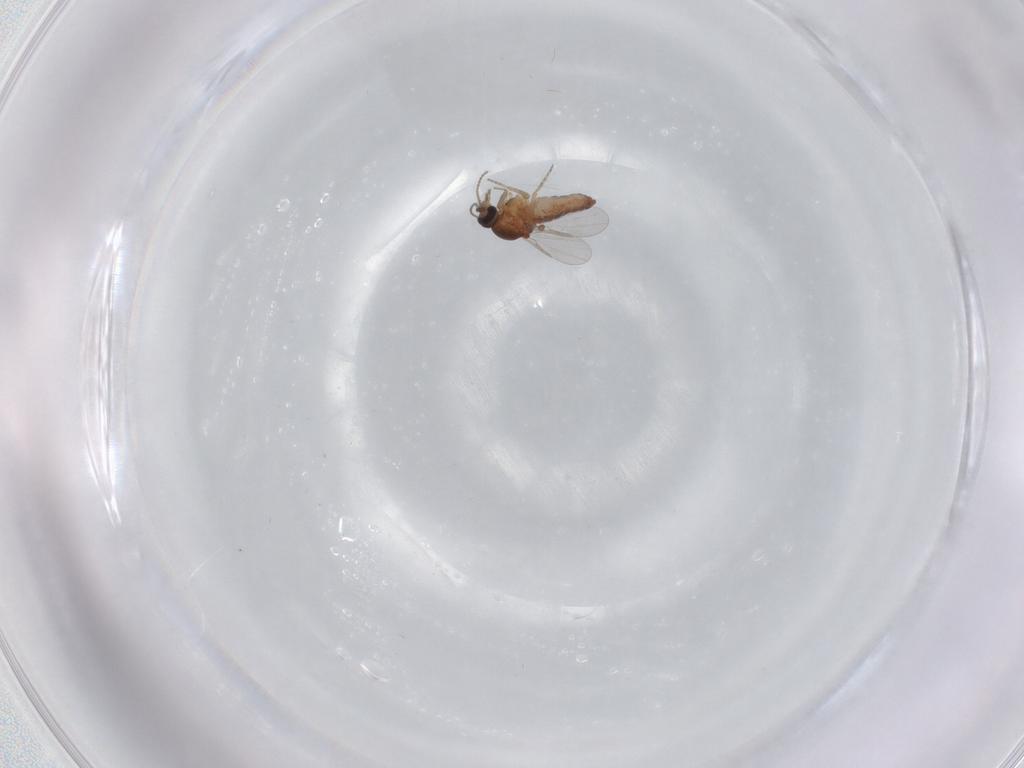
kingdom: Animalia
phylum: Arthropoda
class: Insecta
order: Diptera
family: Ceratopogonidae
